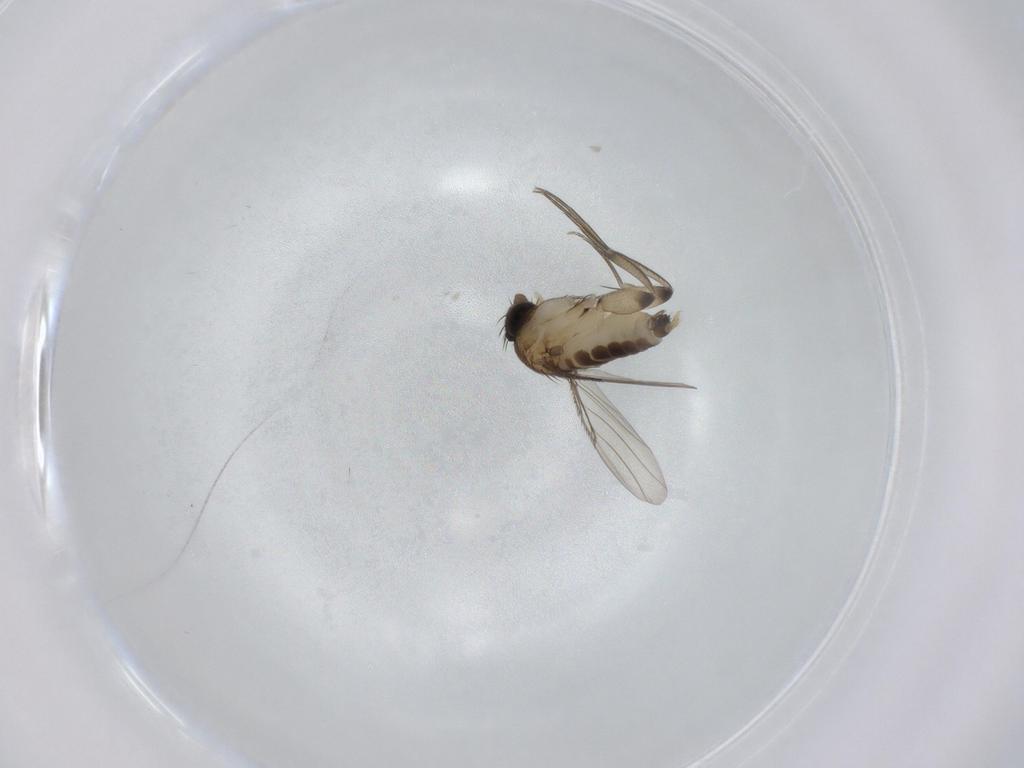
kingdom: Animalia
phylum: Arthropoda
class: Insecta
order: Diptera
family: Phoridae
